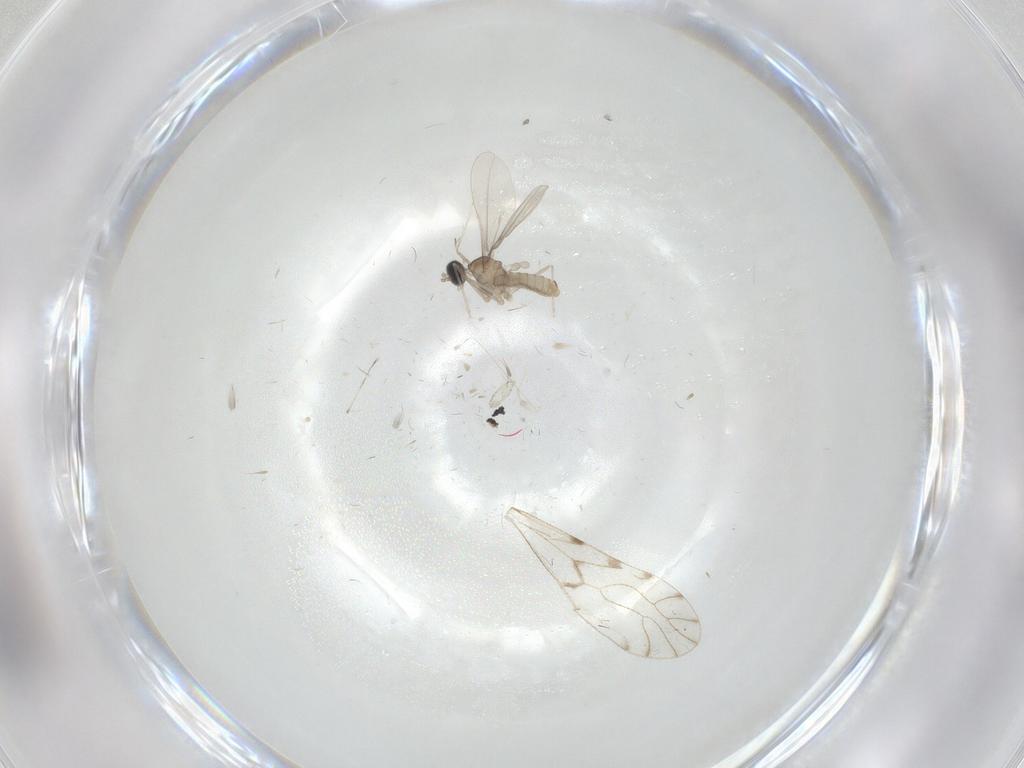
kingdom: Animalia
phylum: Arthropoda
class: Insecta
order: Diptera
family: Cecidomyiidae
